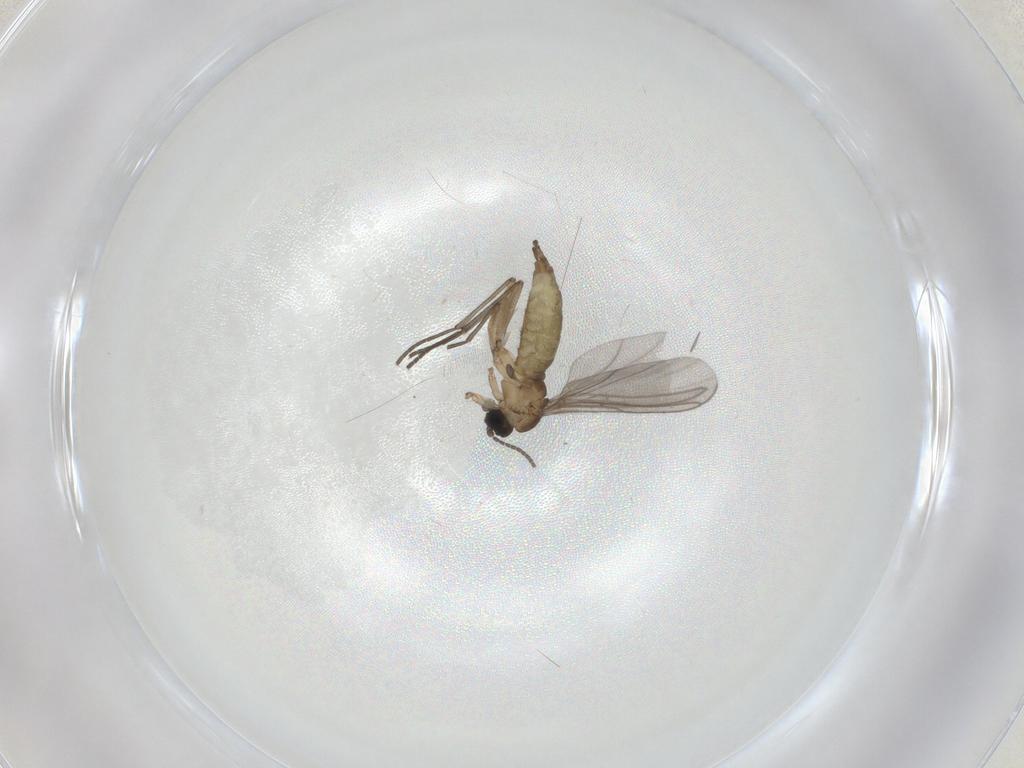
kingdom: Animalia
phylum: Arthropoda
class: Insecta
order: Diptera
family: Sciaridae
